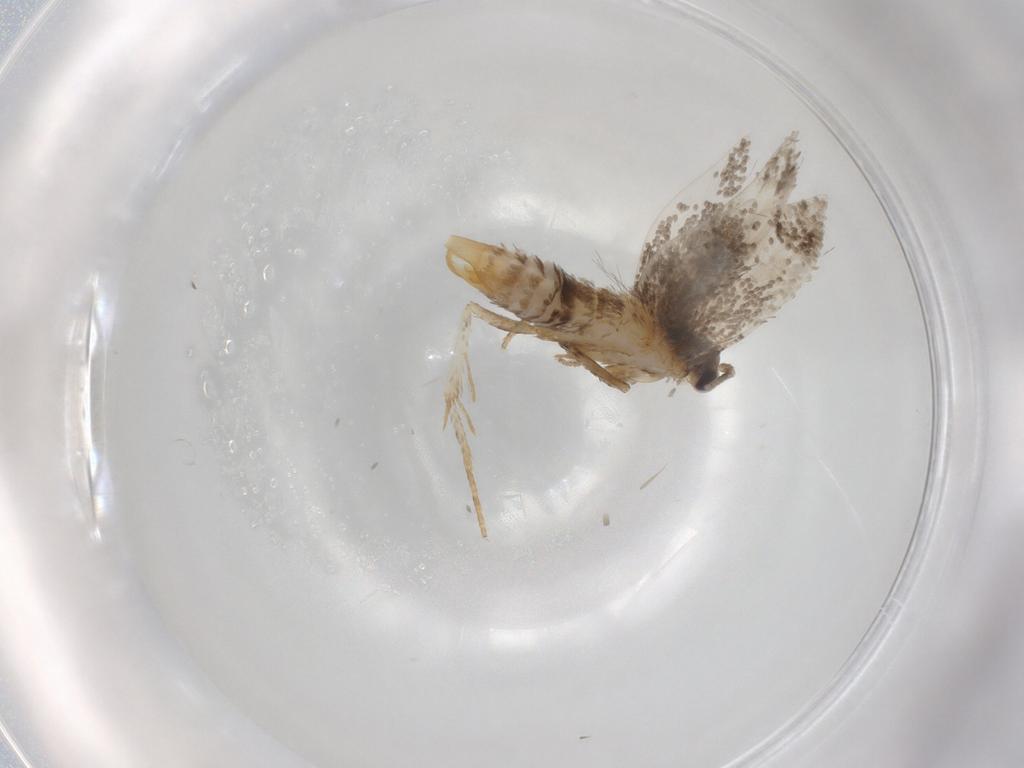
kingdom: Animalia
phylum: Arthropoda
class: Insecta
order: Lepidoptera
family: Tineidae
